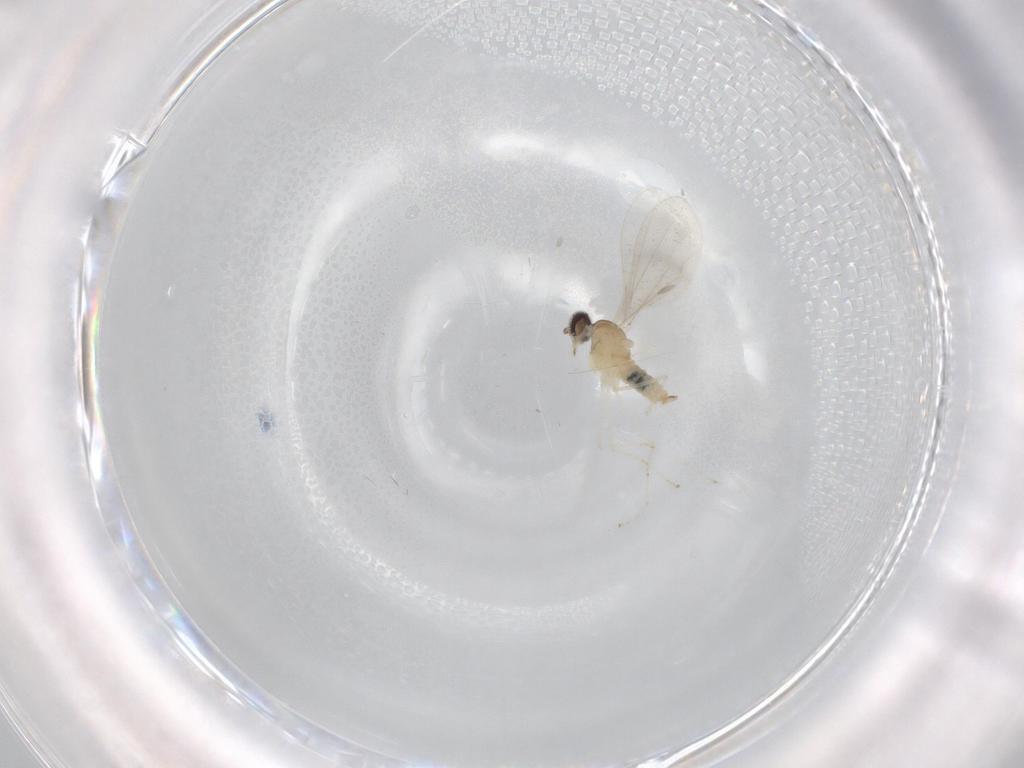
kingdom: Animalia
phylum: Arthropoda
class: Insecta
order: Diptera
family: Cecidomyiidae
